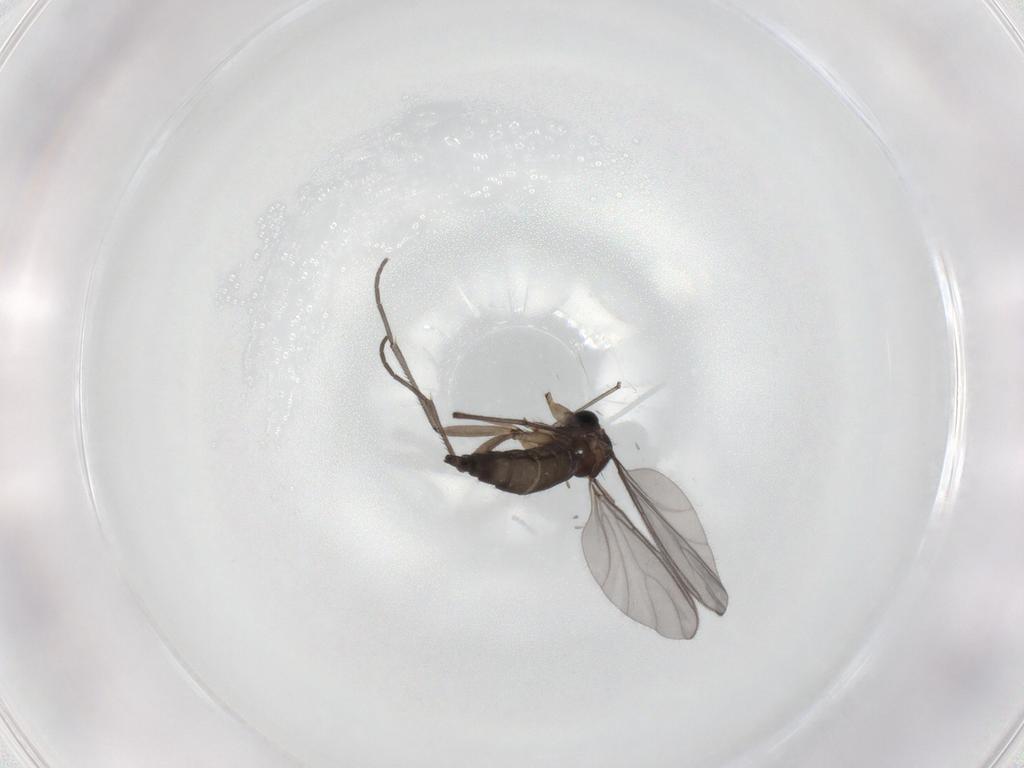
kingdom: Animalia
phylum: Arthropoda
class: Insecta
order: Diptera
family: Sciaridae
